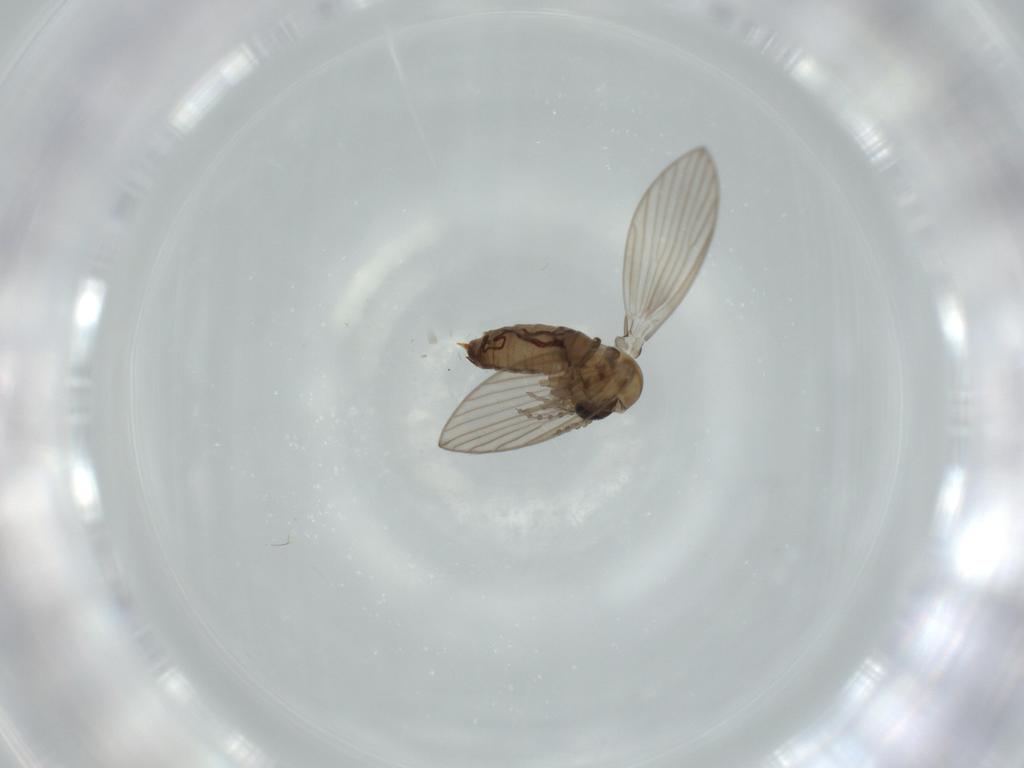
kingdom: Animalia
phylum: Arthropoda
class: Insecta
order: Diptera
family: Psychodidae
